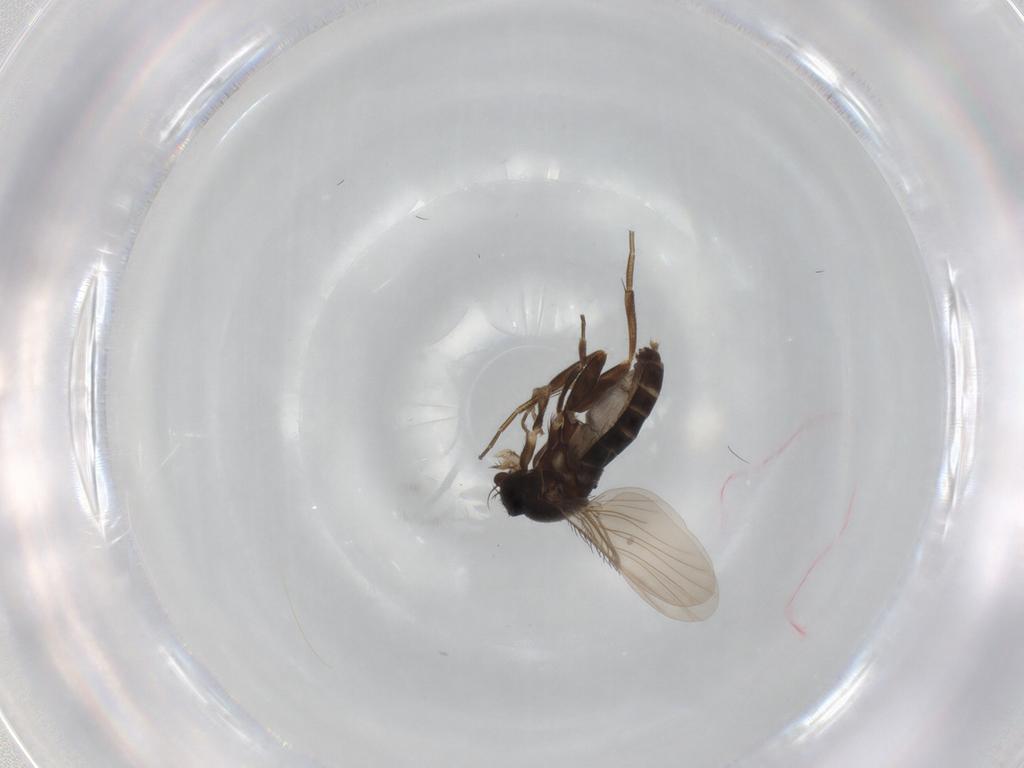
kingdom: Animalia
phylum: Arthropoda
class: Insecta
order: Diptera
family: Phoridae
